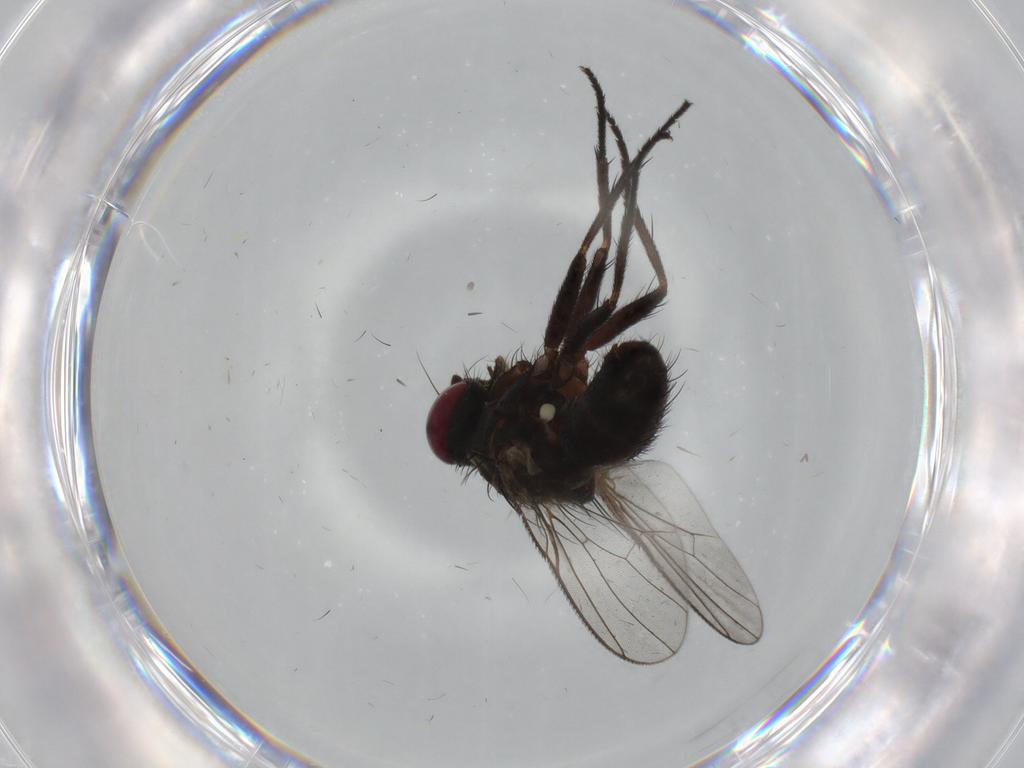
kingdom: Animalia
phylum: Arthropoda
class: Insecta
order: Diptera
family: Muscidae
